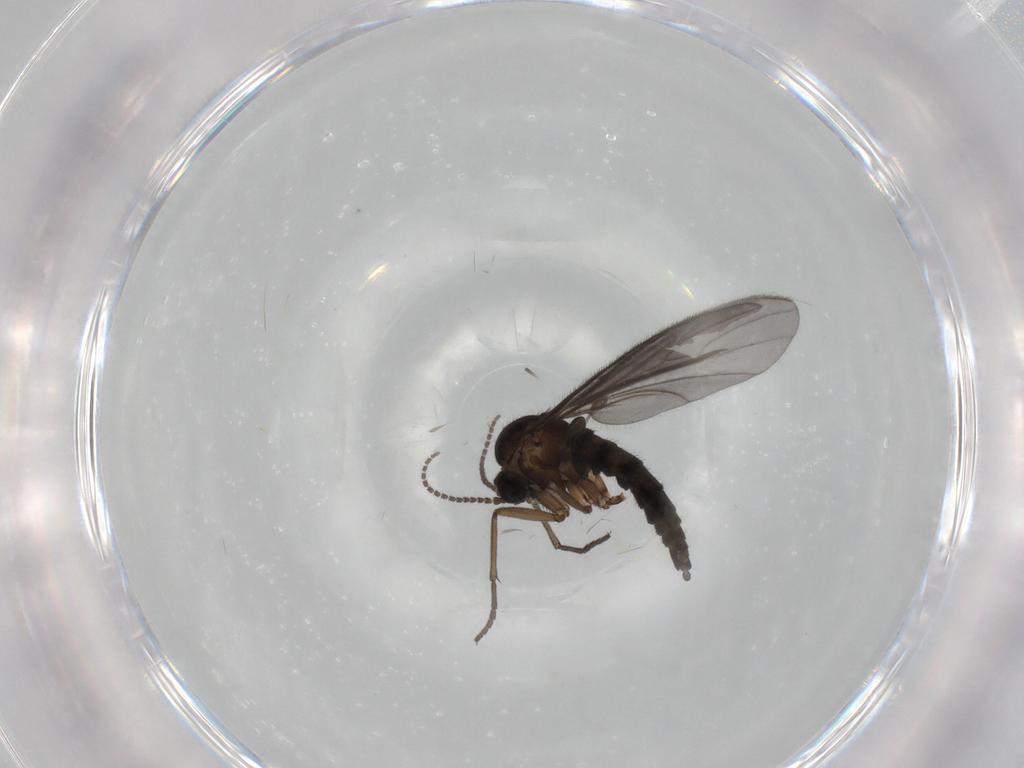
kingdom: Animalia
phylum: Arthropoda
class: Insecta
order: Diptera
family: Sciaridae
